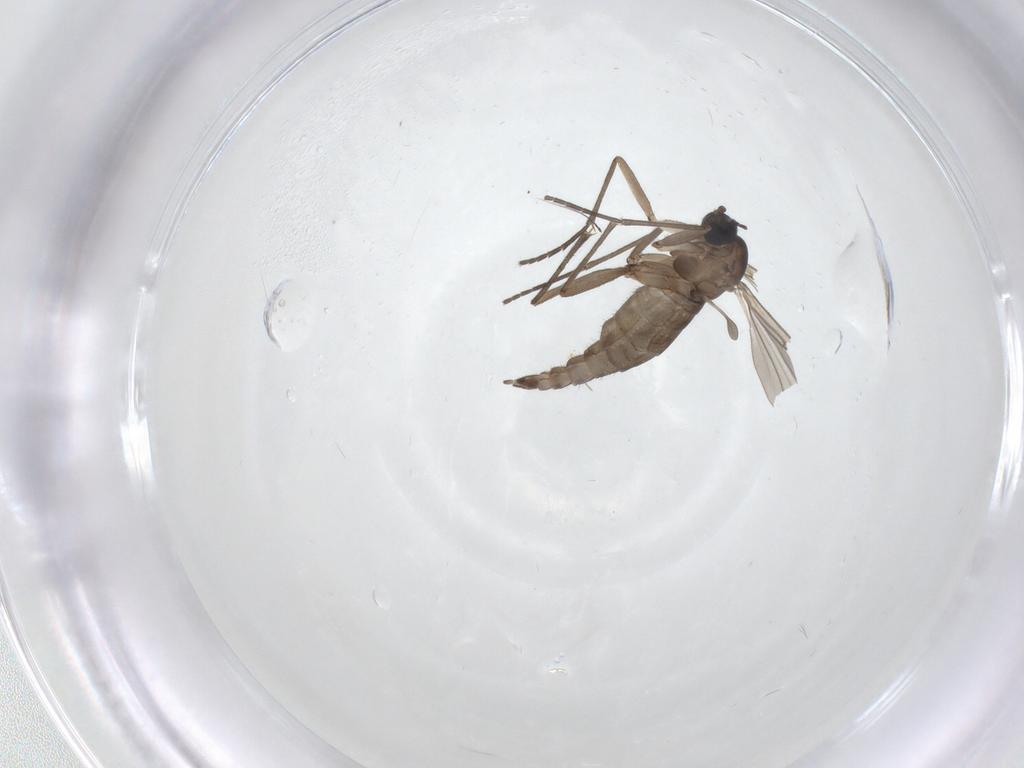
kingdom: Animalia
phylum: Arthropoda
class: Insecta
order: Diptera
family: Sciaridae
